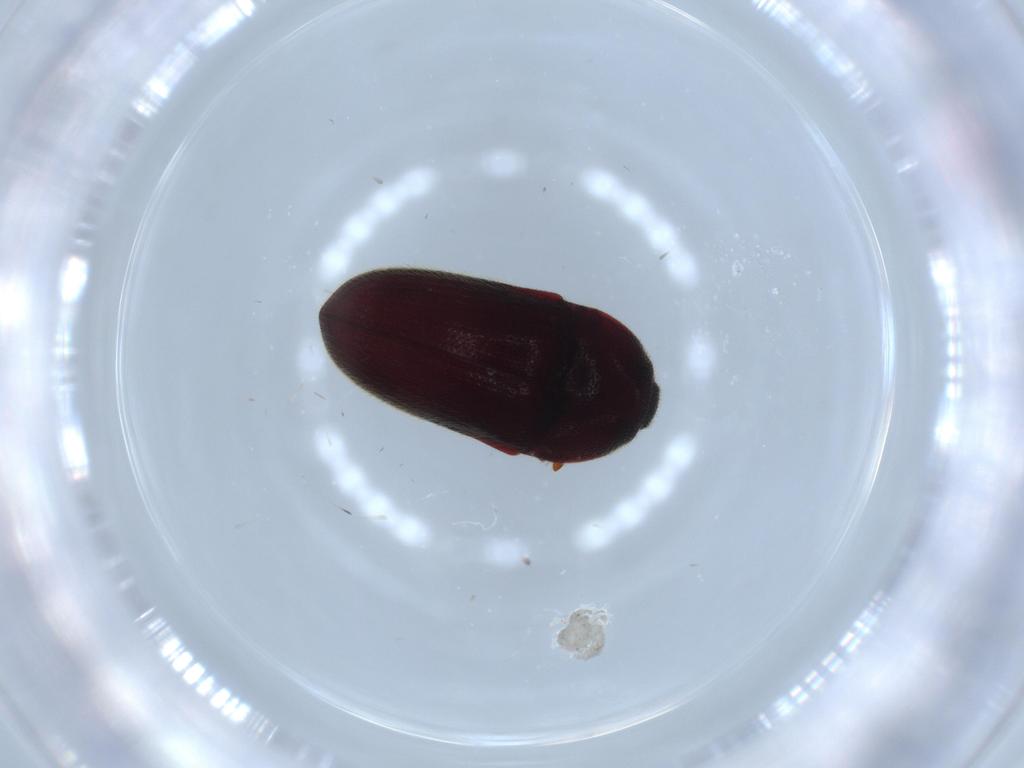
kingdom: Animalia
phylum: Arthropoda
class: Insecta
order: Coleoptera
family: Throscidae
